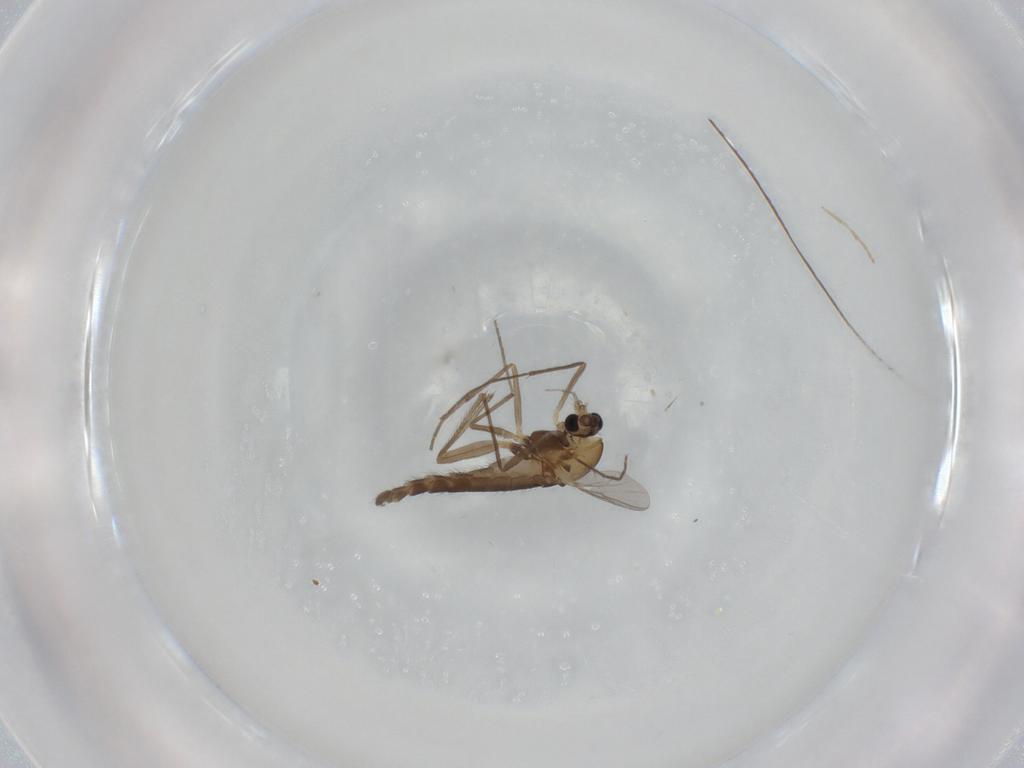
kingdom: Animalia
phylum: Arthropoda
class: Insecta
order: Diptera
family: Chironomidae
